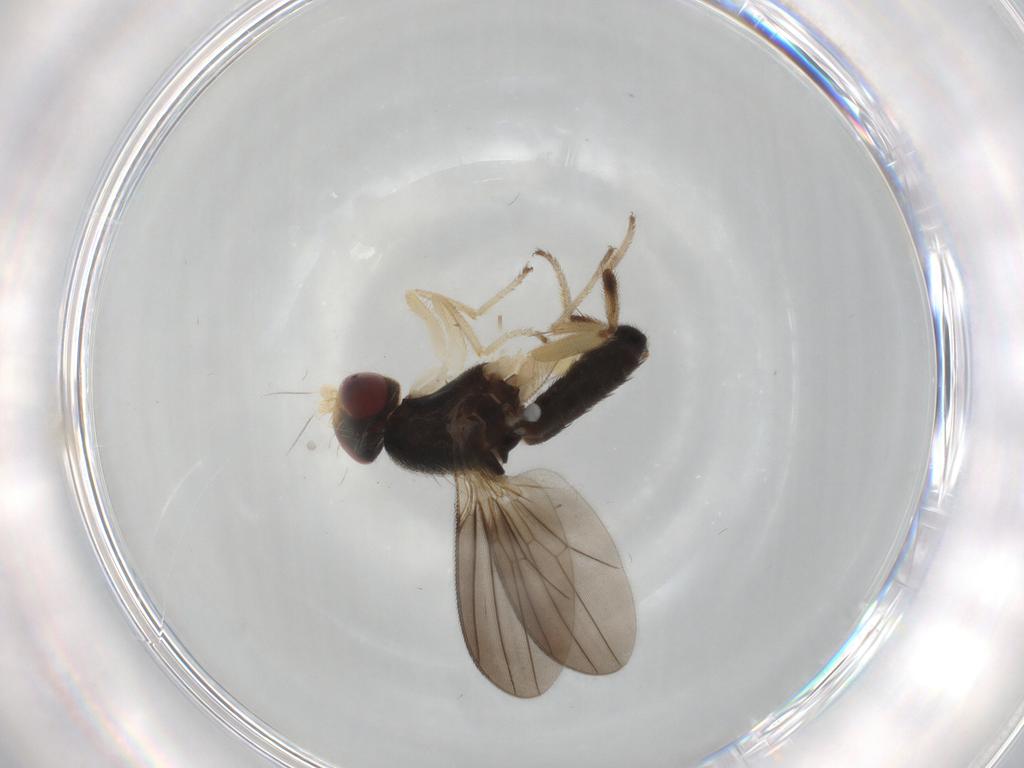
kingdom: Animalia
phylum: Arthropoda
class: Insecta
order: Diptera
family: Clusiidae
